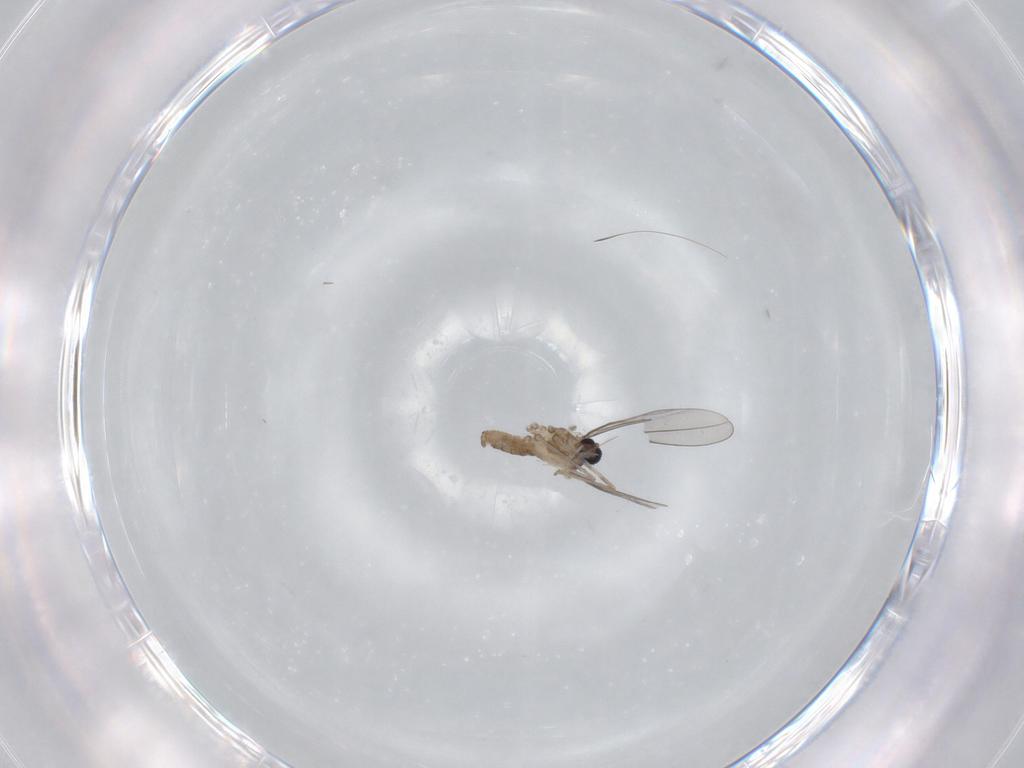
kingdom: Animalia
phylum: Arthropoda
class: Insecta
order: Diptera
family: Cecidomyiidae
